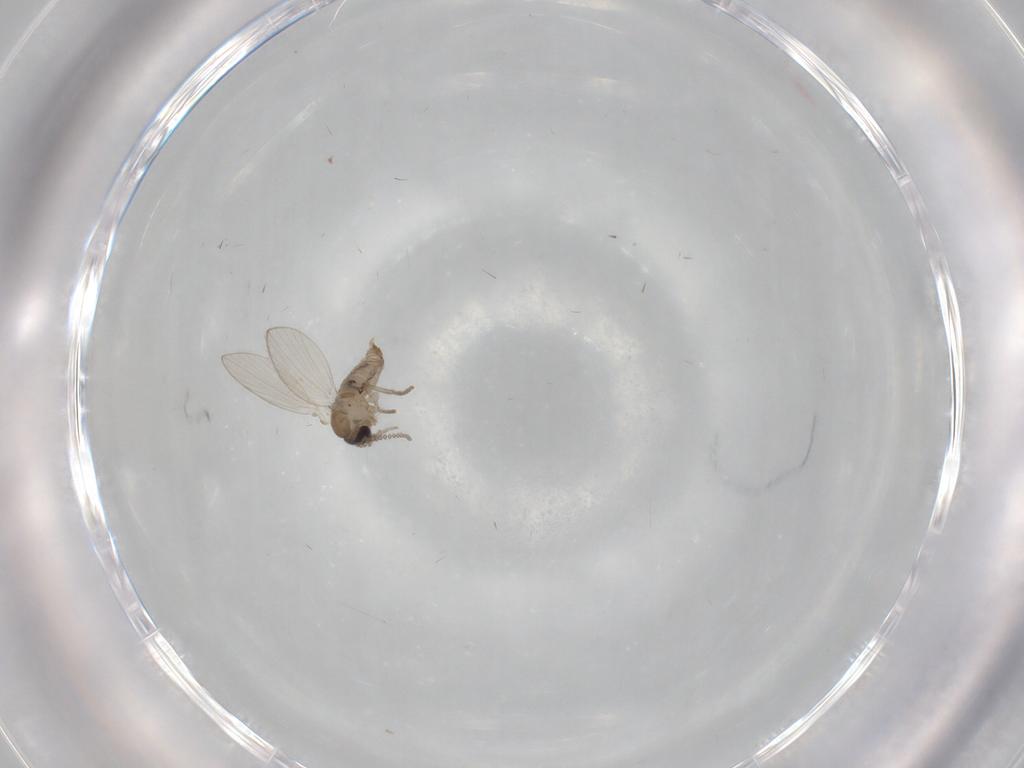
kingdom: Animalia
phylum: Arthropoda
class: Insecta
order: Diptera
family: Psychodidae
